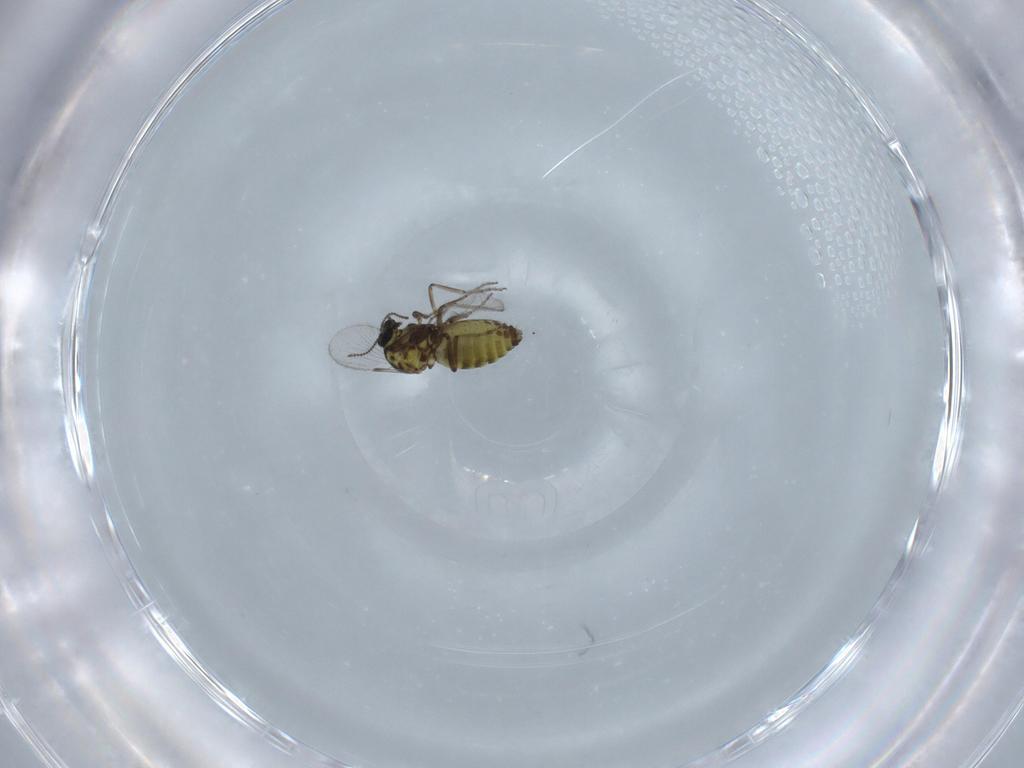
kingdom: Animalia
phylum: Arthropoda
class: Insecta
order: Diptera
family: Ceratopogonidae
